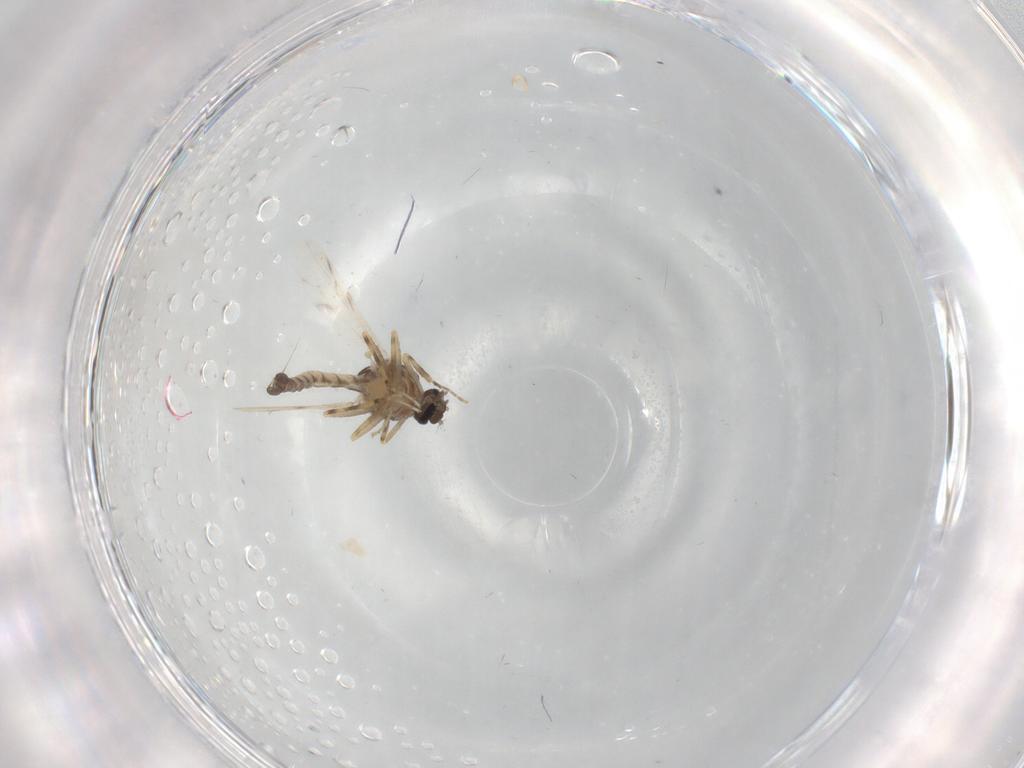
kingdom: Animalia
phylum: Arthropoda
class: Insecta
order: Diptera
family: Ceratopogonidae
